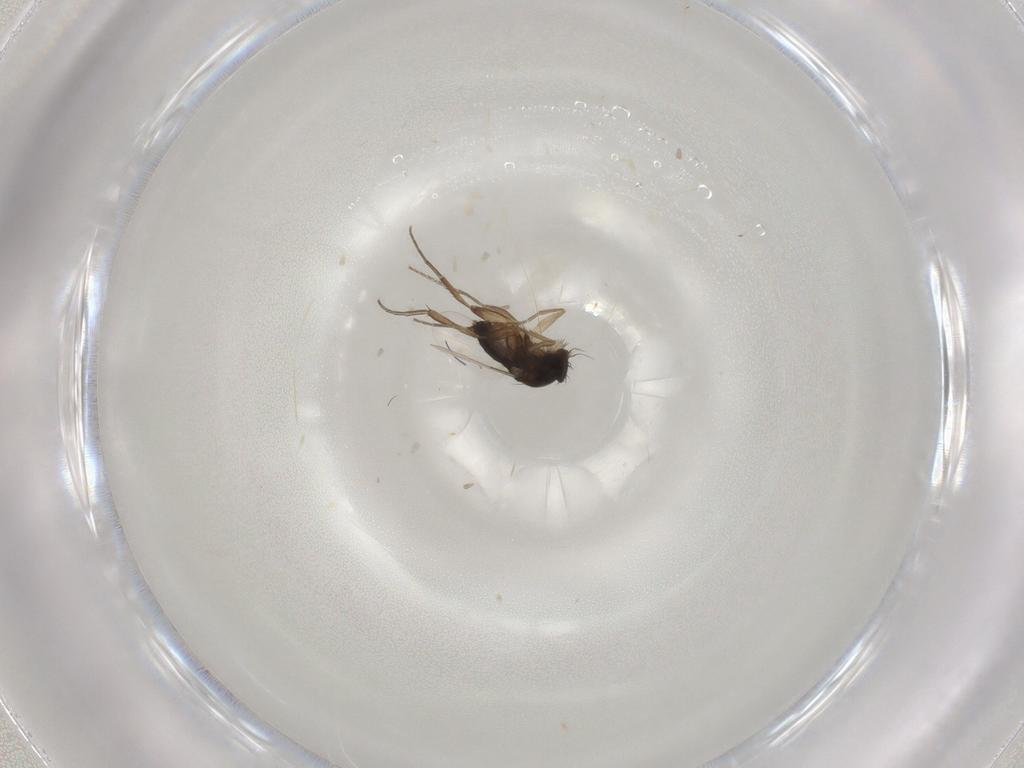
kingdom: Animalia
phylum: Arthropoda
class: Insecta
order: Diptera
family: Phoridae
